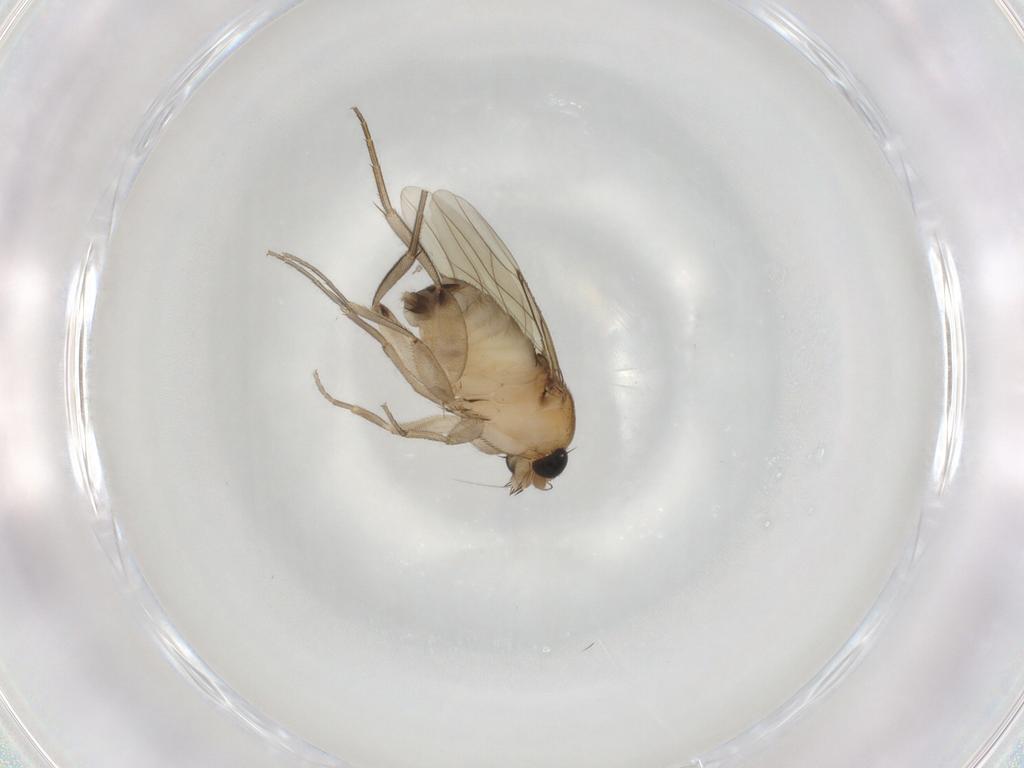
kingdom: Animalia
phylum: Arthropoda
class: Insecta
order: Diptera
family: Phoridae
